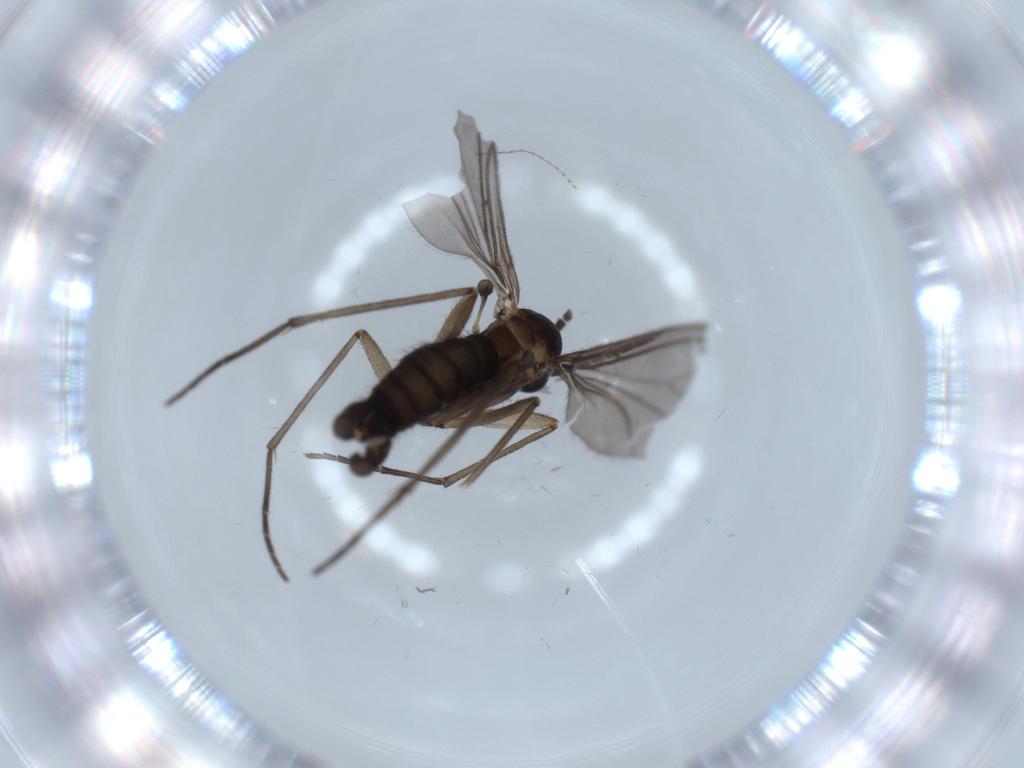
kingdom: Animalia
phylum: Arthropoda
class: Insecta
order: Diptera
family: Sciaridae
